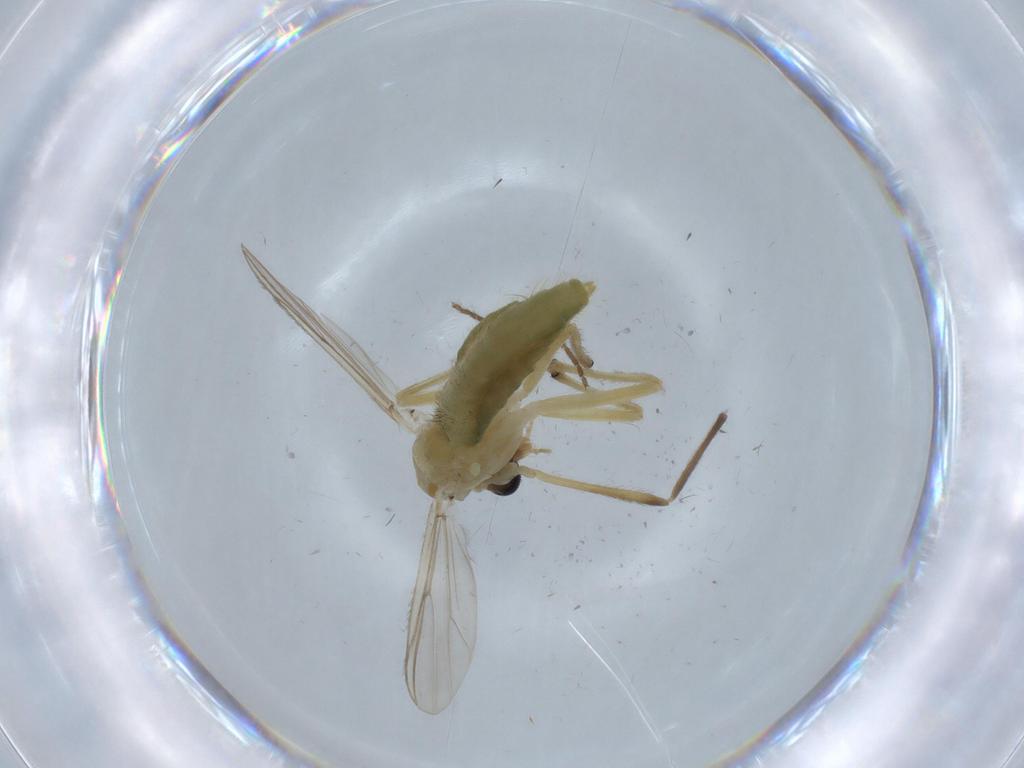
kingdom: Animalia
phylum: Arthropoda
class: Insecta
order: Diptera
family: Chironomidae
